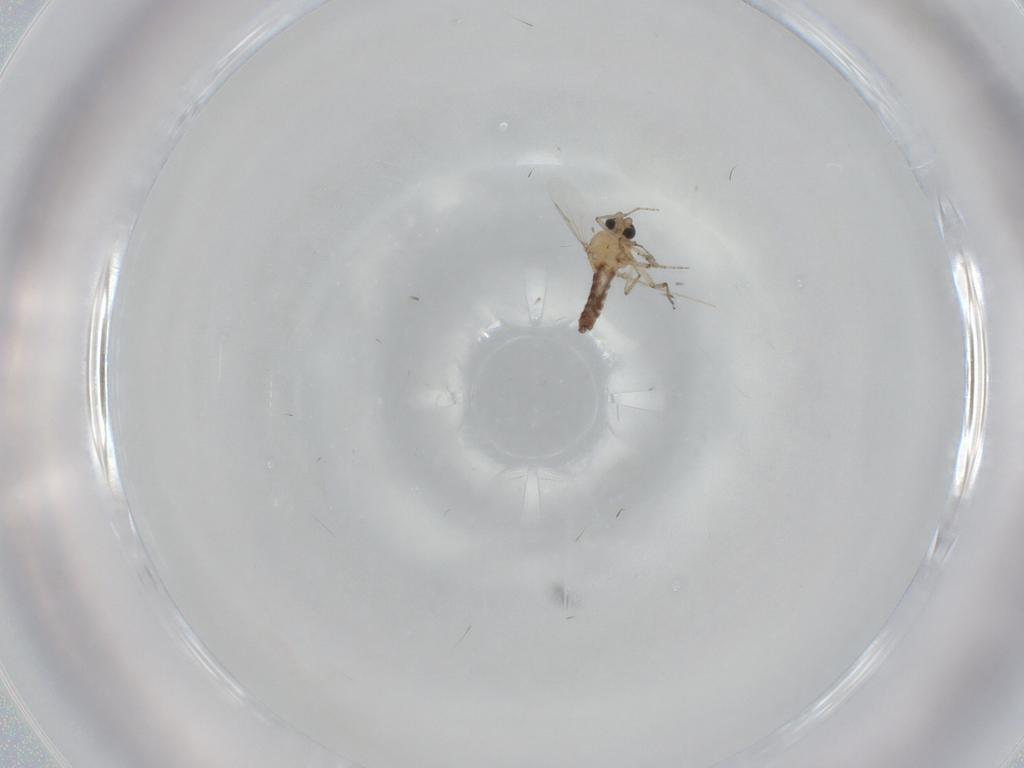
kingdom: Animalia
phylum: Arthropoda
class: Insecta
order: Diptera
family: Ceratopogonidae
